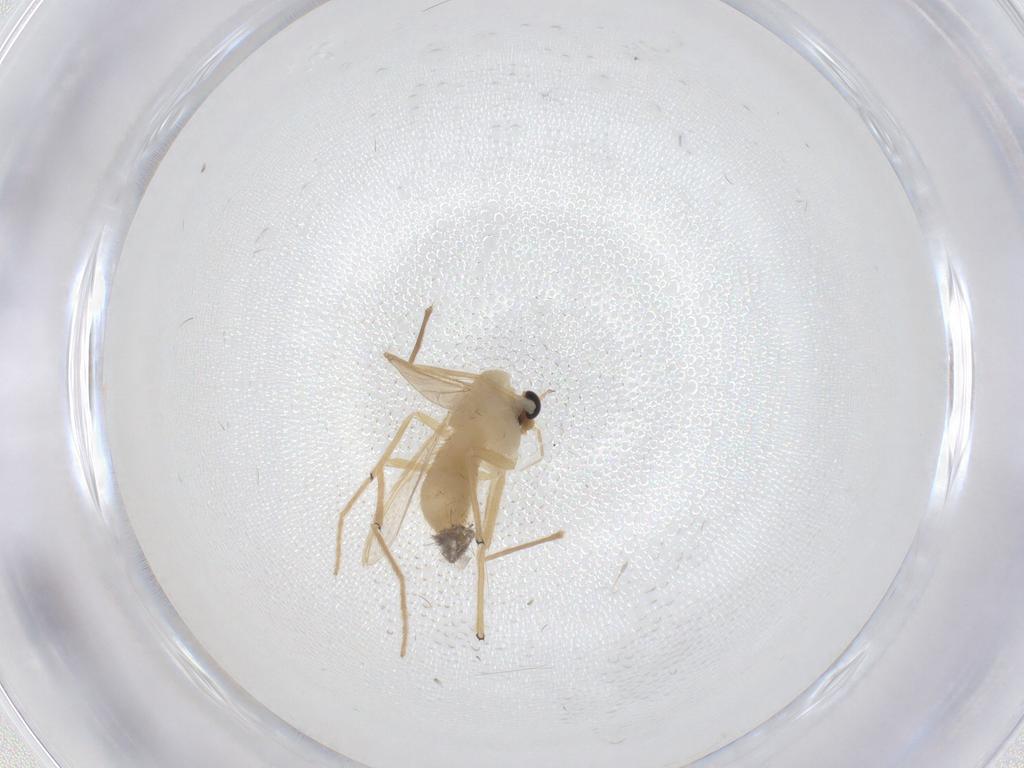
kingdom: Animalia
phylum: Arthropoda
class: Insecta
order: Diptera
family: Chironomidae
